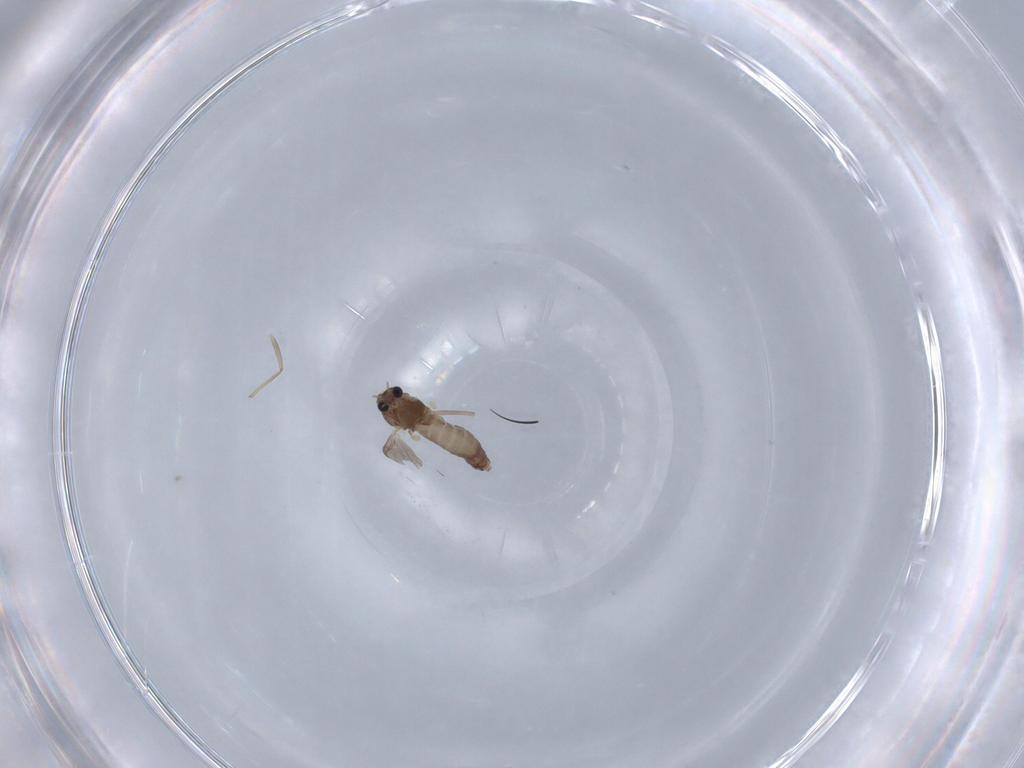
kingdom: Animalia
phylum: Arthropoda
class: Insecta
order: Diptera
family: Chironomidae
